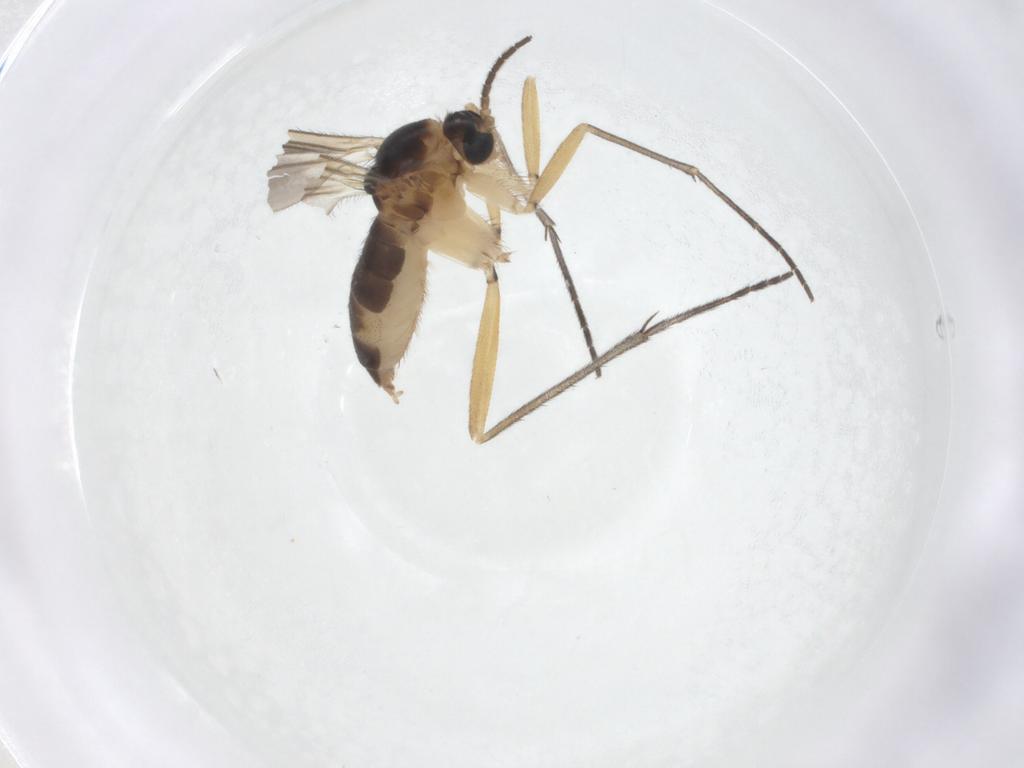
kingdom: Animalia
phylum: Arthropoda
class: Insecta
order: Diptera
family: Sciaridae
